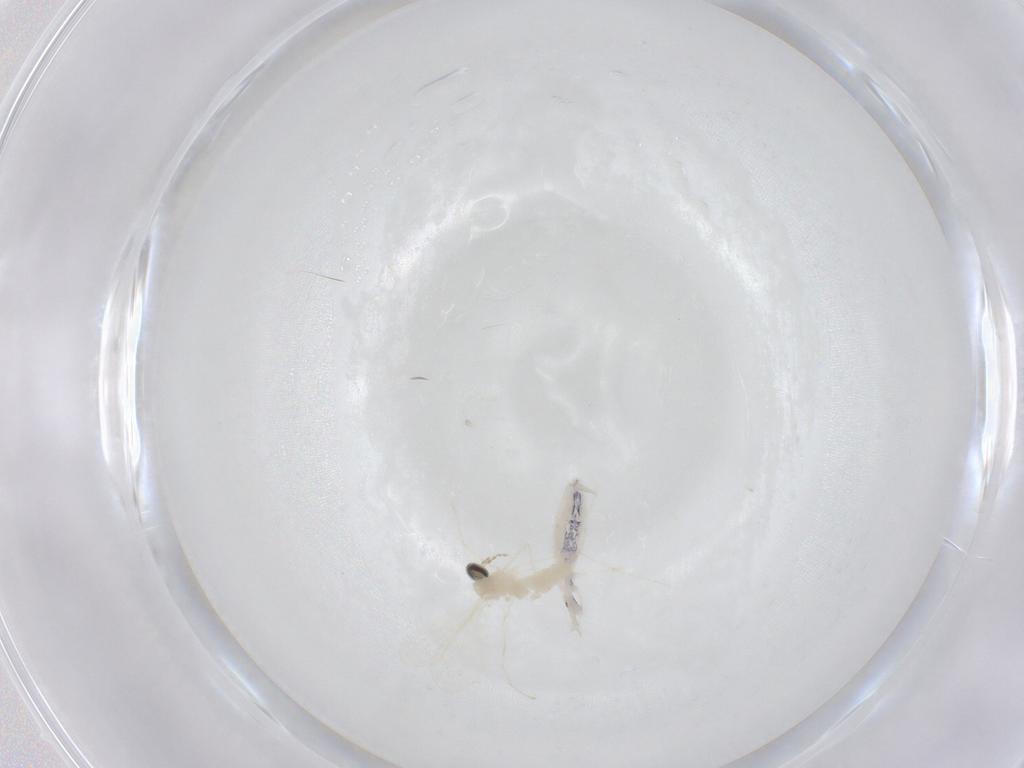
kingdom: Animalia
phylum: Arthropoda
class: Insecta
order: Diptera
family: Cecidomyiidae
